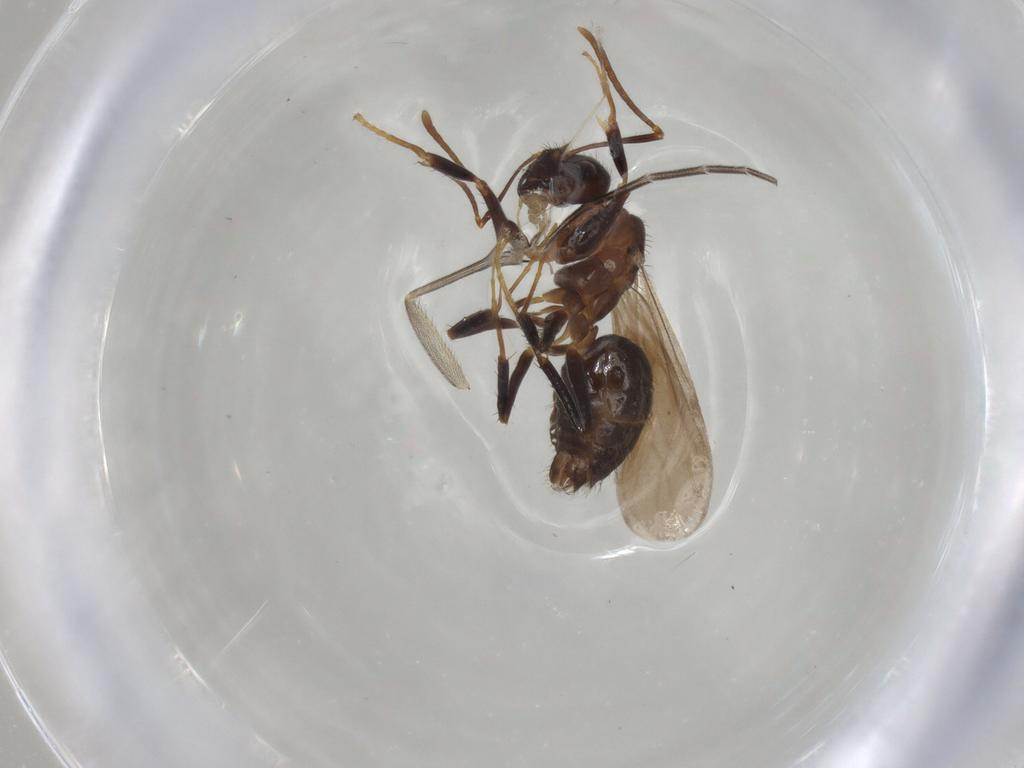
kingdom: Animalia
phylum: Arthropoda
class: Insecta
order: Hymenoptera
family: Formicidae
